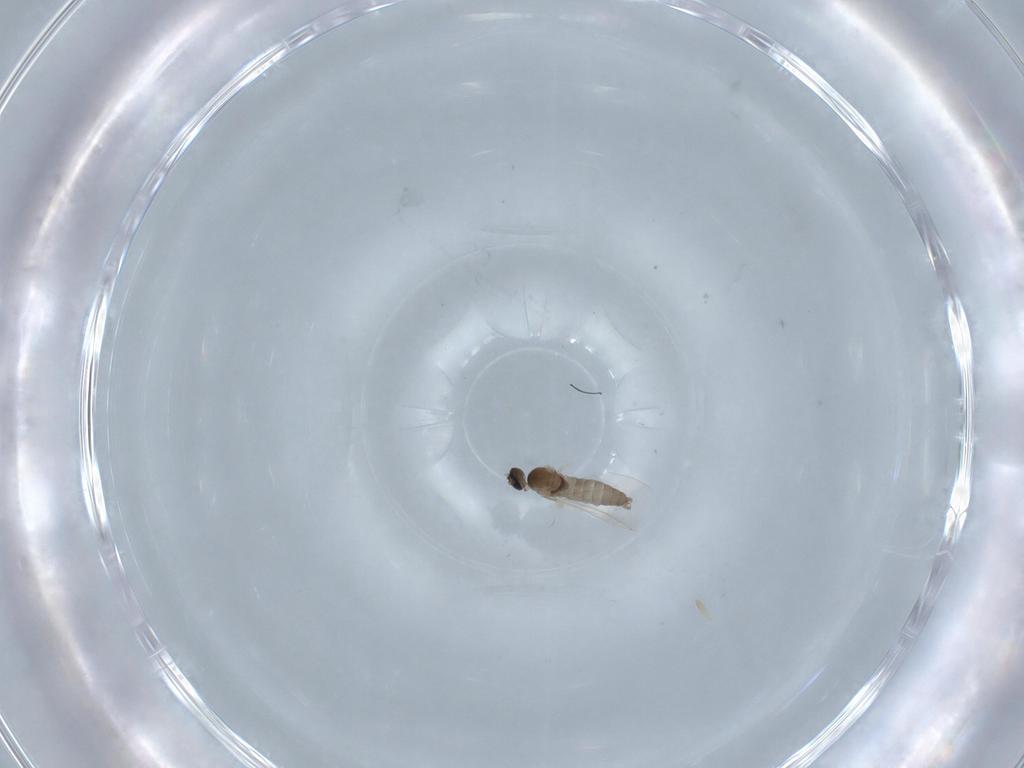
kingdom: Animalia
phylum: Arthropoda
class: Insecta
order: Diptera
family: Cecidomyiidae
